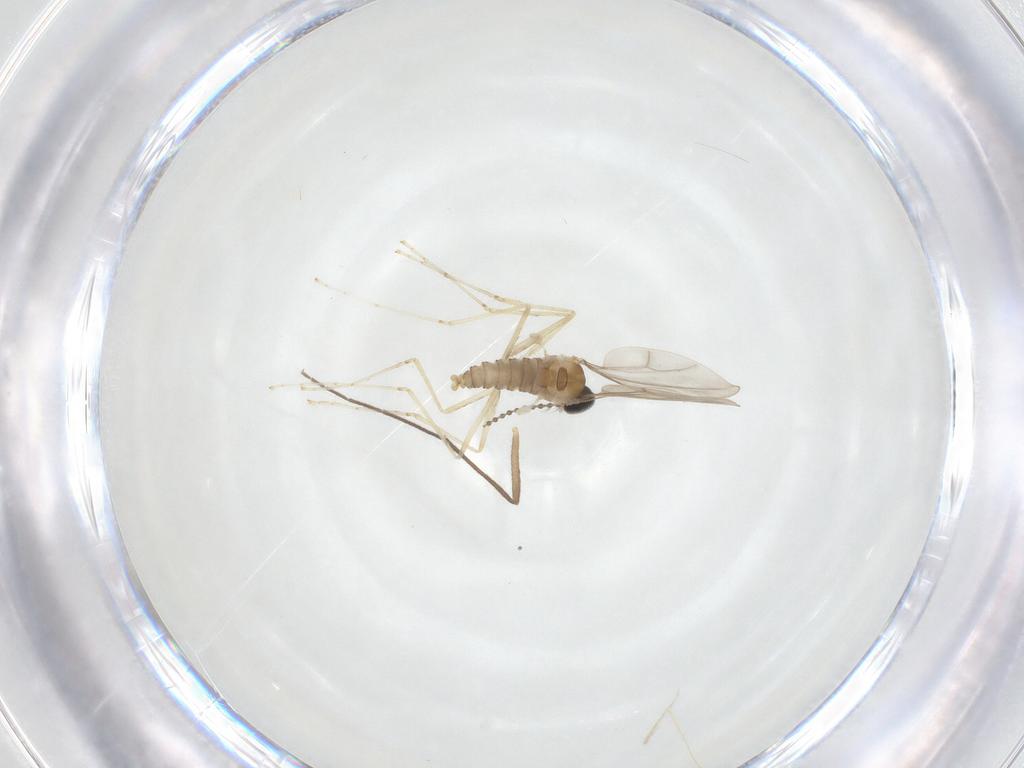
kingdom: Animalia
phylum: Arthropoda
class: Insecta
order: Diptera
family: Cecidomyiidae
